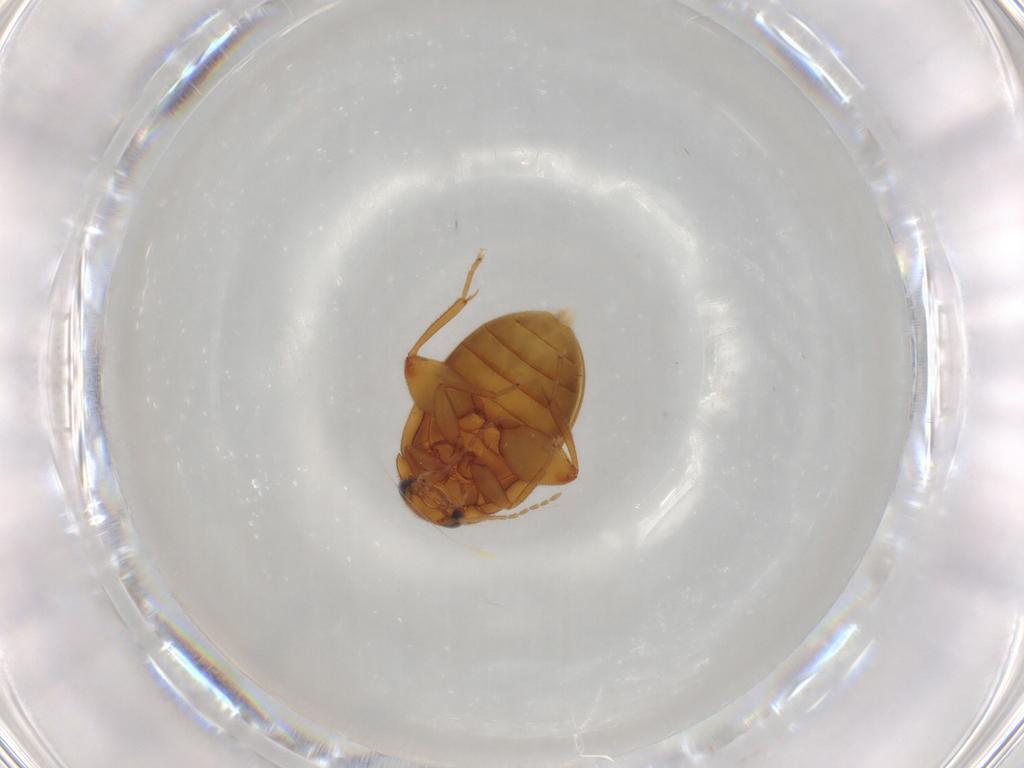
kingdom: Animalia
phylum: Arthropoda
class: Insecta
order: Coleoptera
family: Scirtidae
